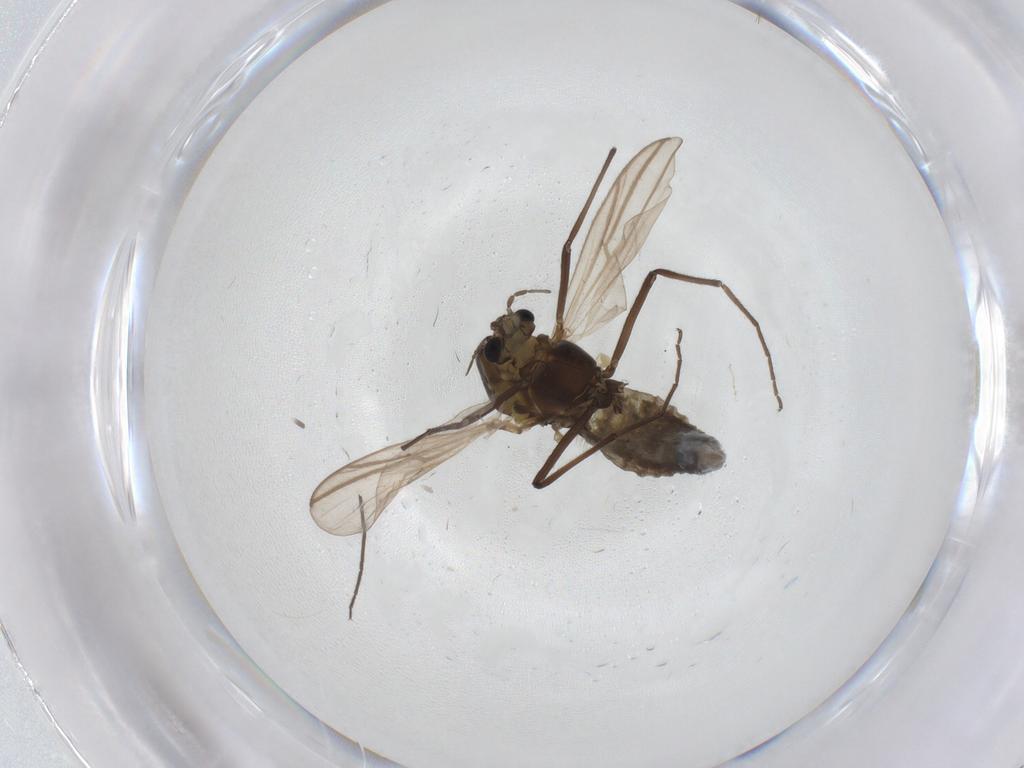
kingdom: Animalia
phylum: Arthropoda
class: Insecta
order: Diptera
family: Chironomidae
